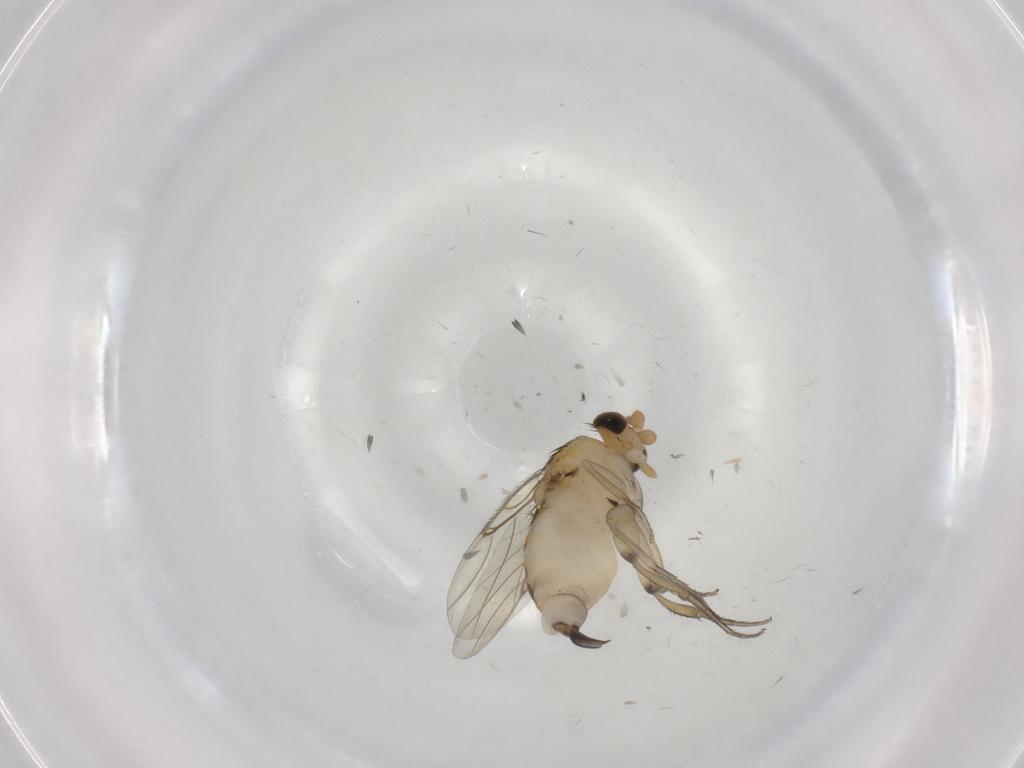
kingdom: Animalia
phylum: Arthropoda
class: Insecta
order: Diptera
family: Phoridae
